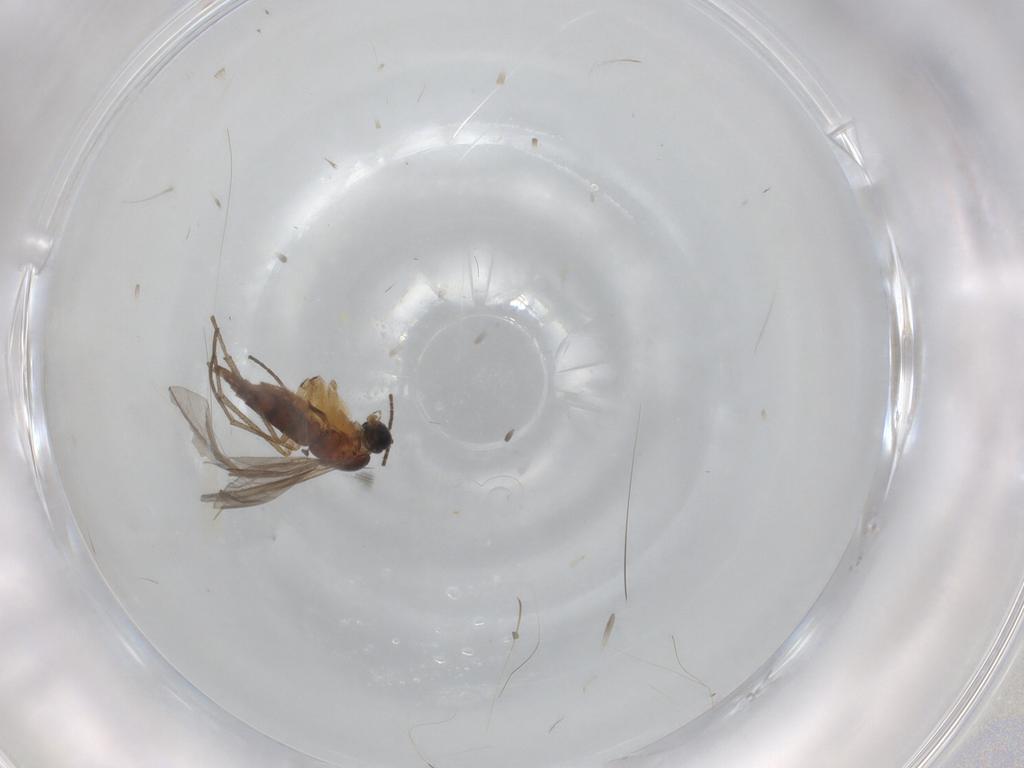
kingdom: Animalia
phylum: Arthropoda
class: Insecta
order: Diptera
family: Sciaridae
